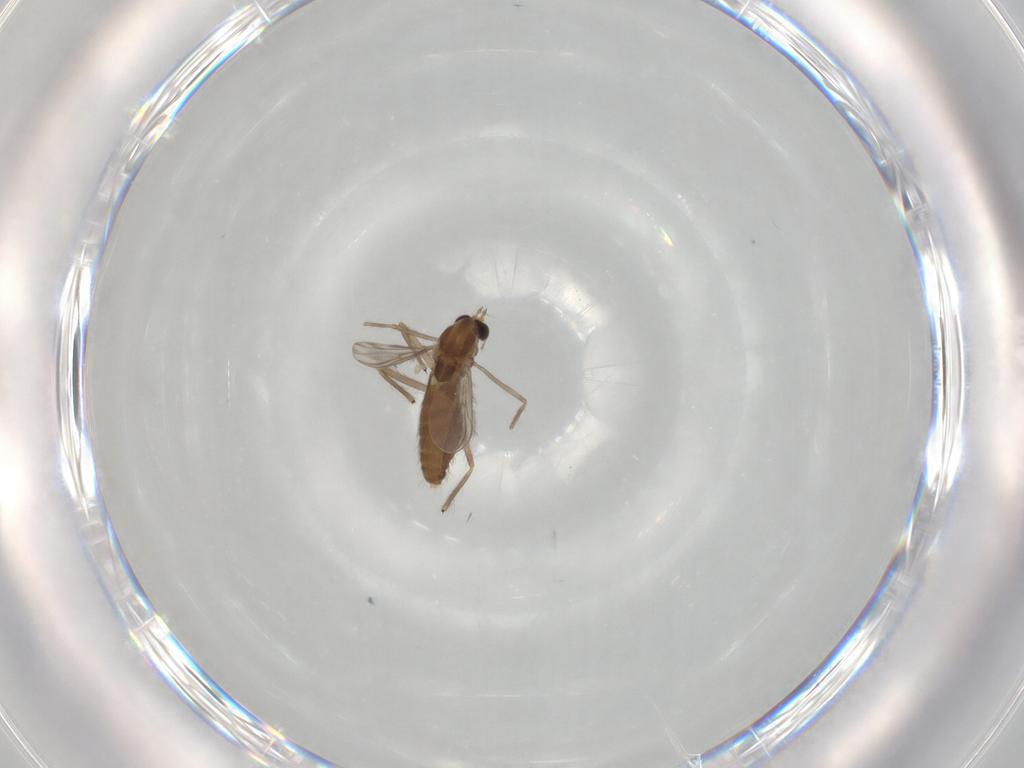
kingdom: Animalia
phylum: Arthropoda
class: Insecta
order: Diptera
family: Chironomidae
